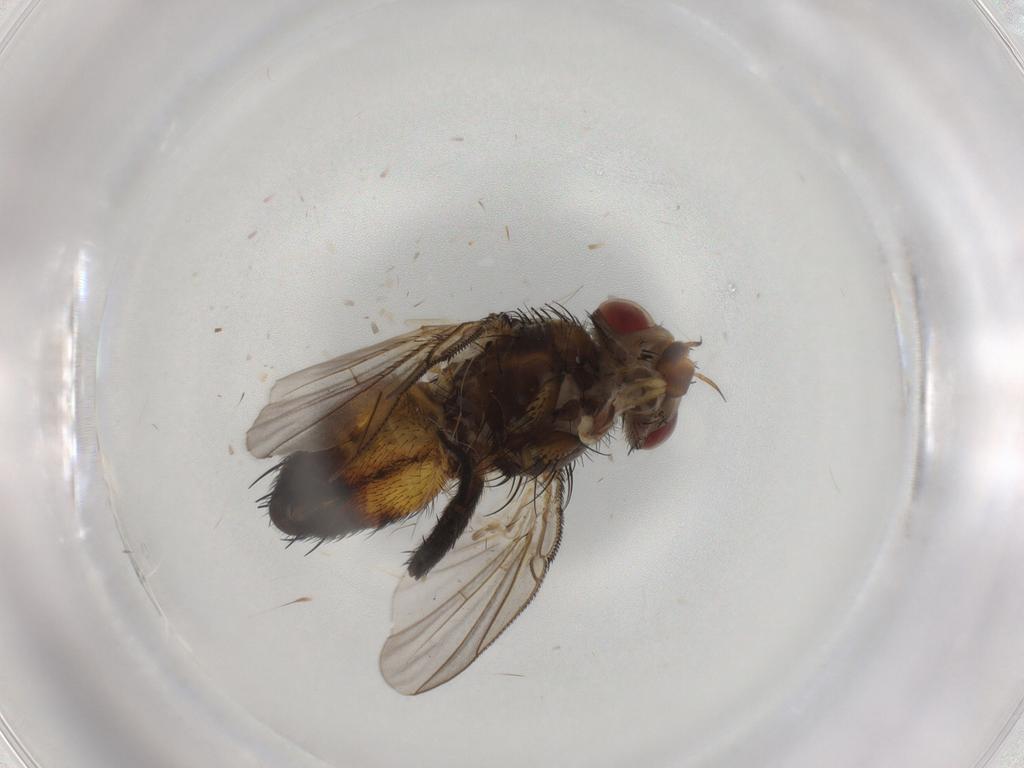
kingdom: Animalia
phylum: Arthropoda
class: Insecta
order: Diptera
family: Tachinidae
